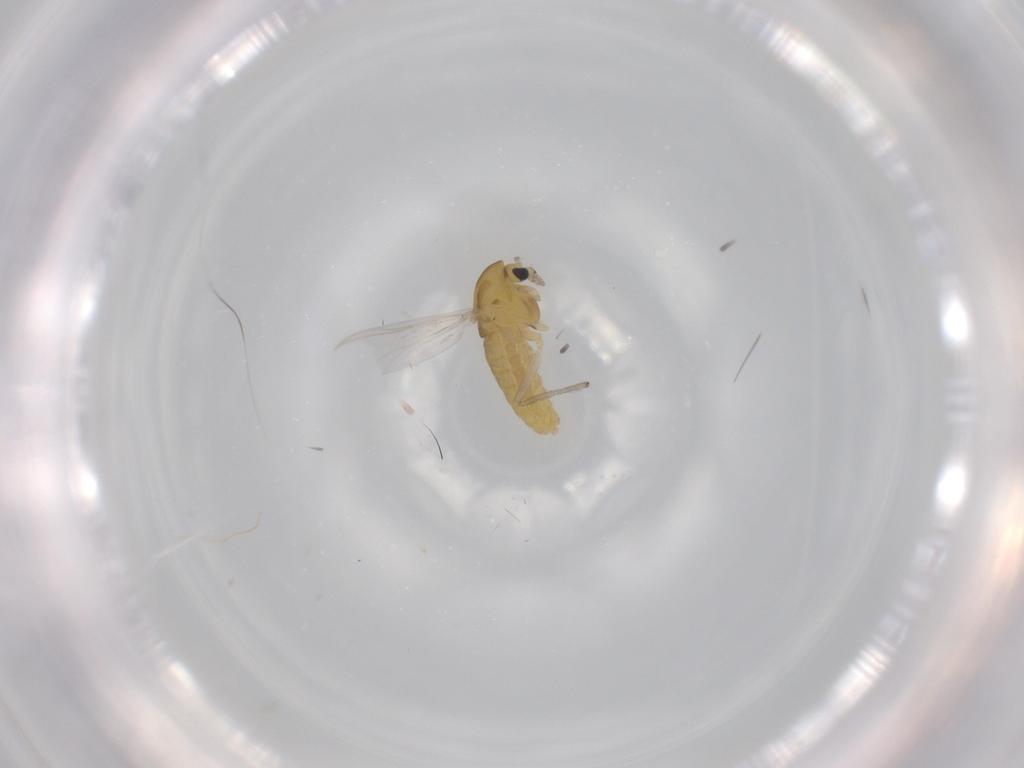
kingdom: Animalia
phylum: Arthropoda
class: Insecta
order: Diptera
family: Chironomidae
